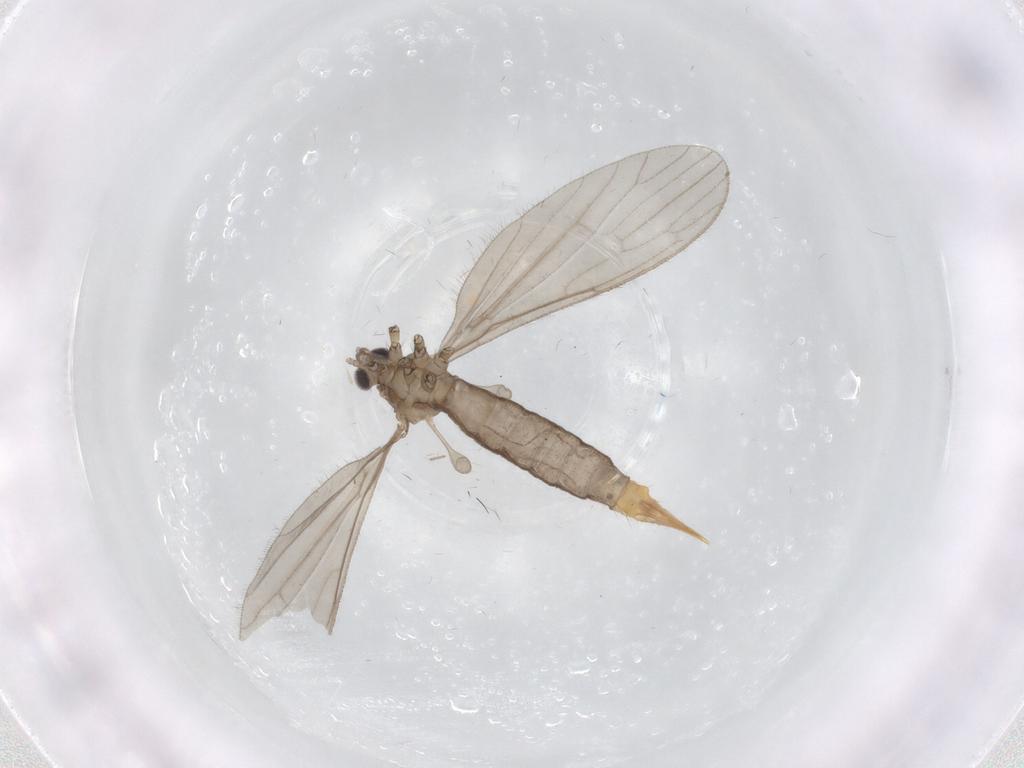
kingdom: Animalia
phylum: Arthropoda
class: Insecta
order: Diptera
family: Limoniidae
